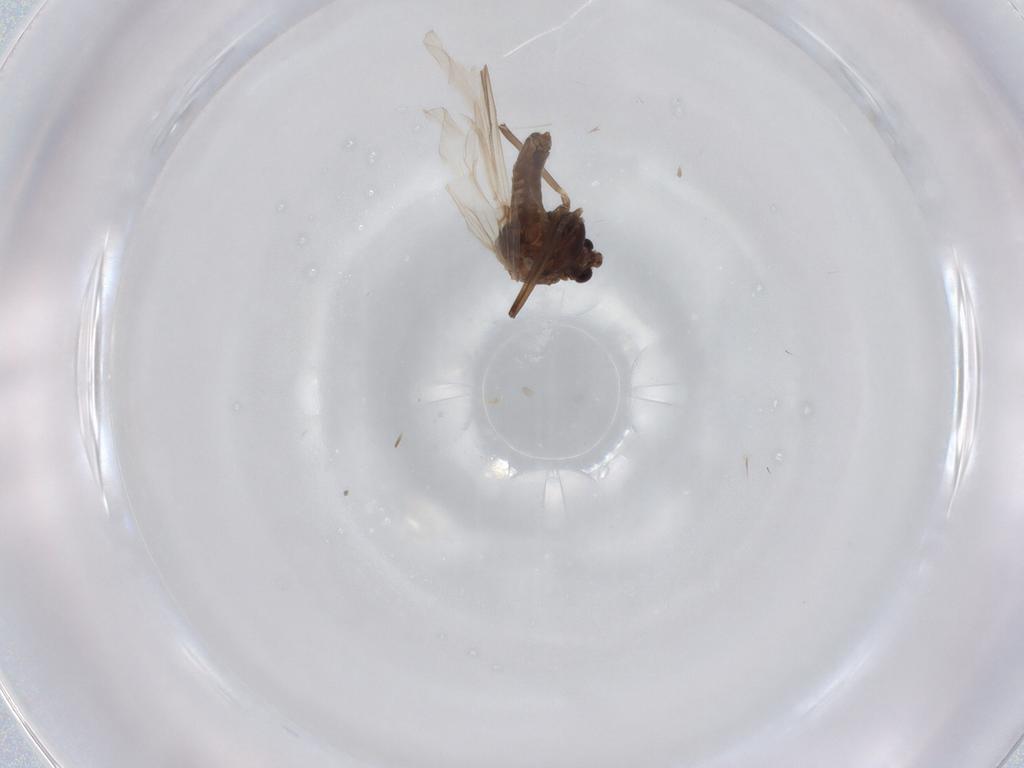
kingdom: Animalia
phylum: Arthropoda
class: Insecta
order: Diptera
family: Chironomidae
